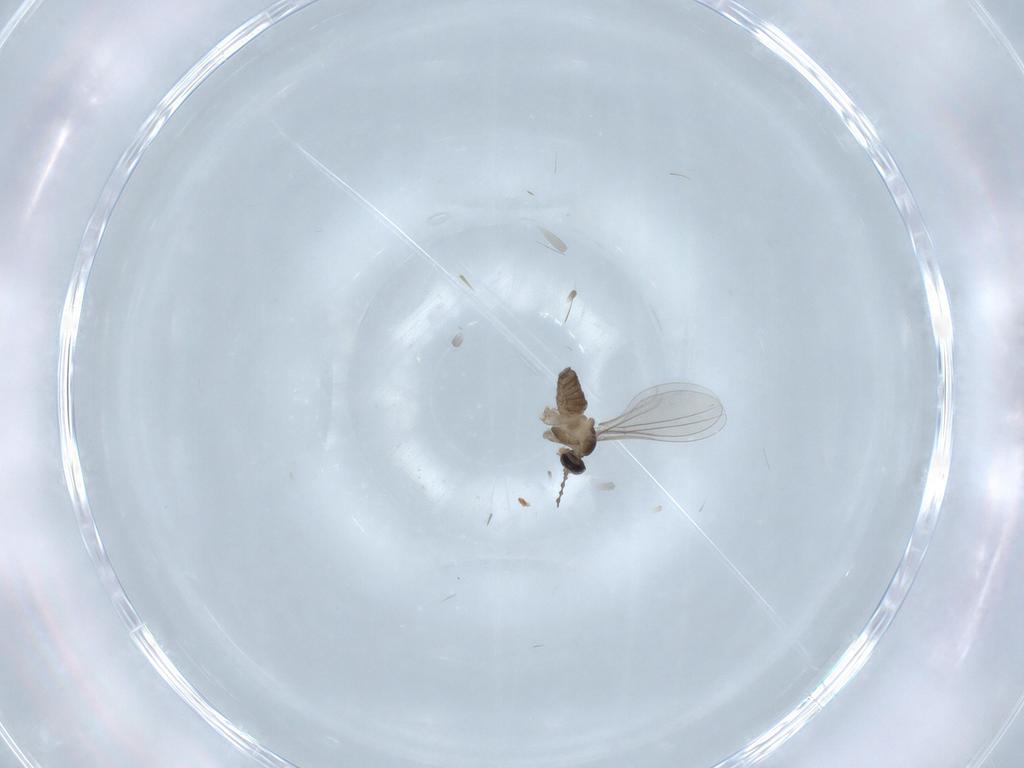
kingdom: Animalia
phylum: Arthropoda
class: Insecta
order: Diptera
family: Cecidomyiidae
